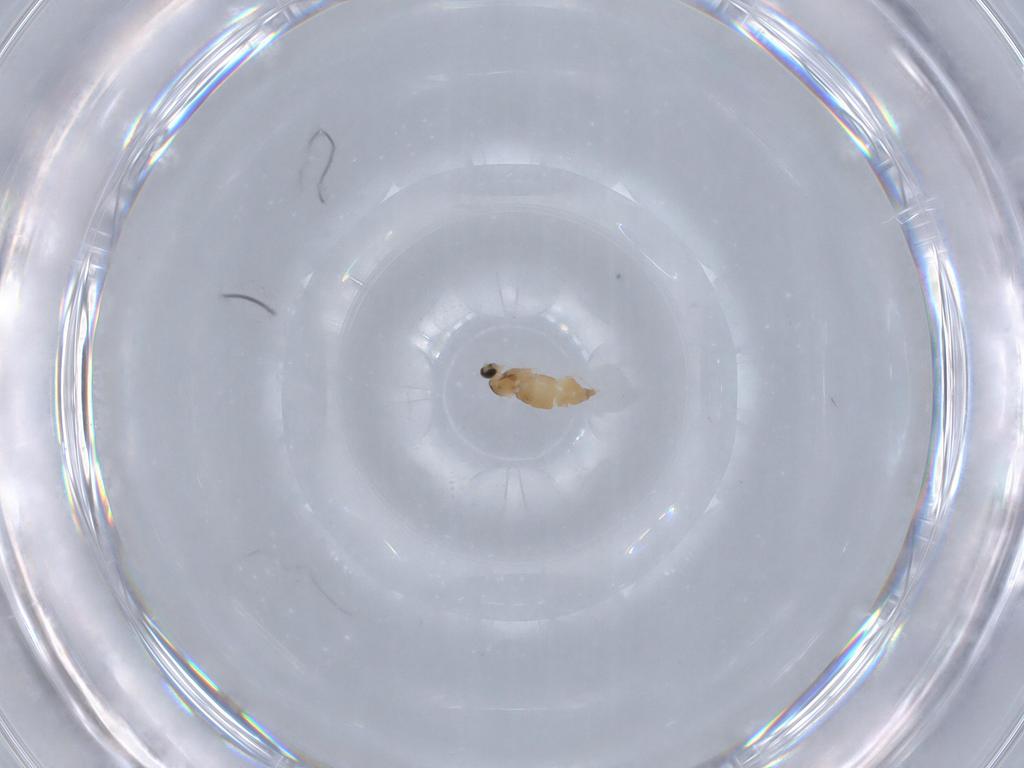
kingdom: Animalia
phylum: Arthropoda
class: Insecta
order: Diptera
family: Cecidomyiidae
